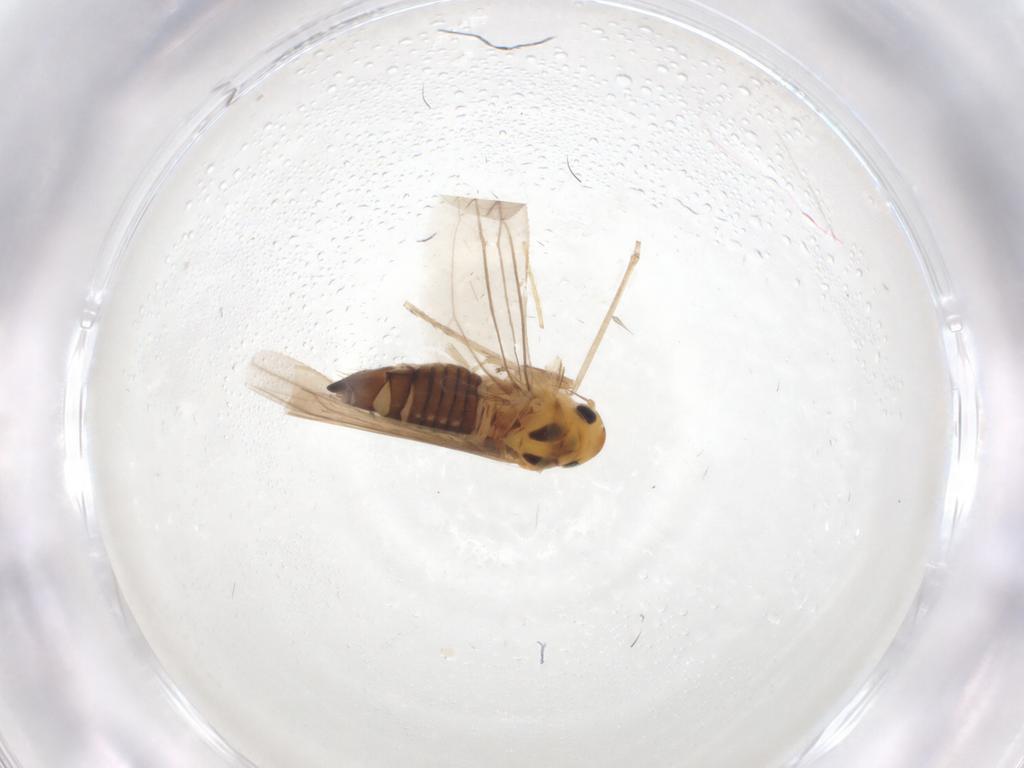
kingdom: Animalia
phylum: Arthropoda
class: Insecta
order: Hemiptera
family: Cicadellidae
